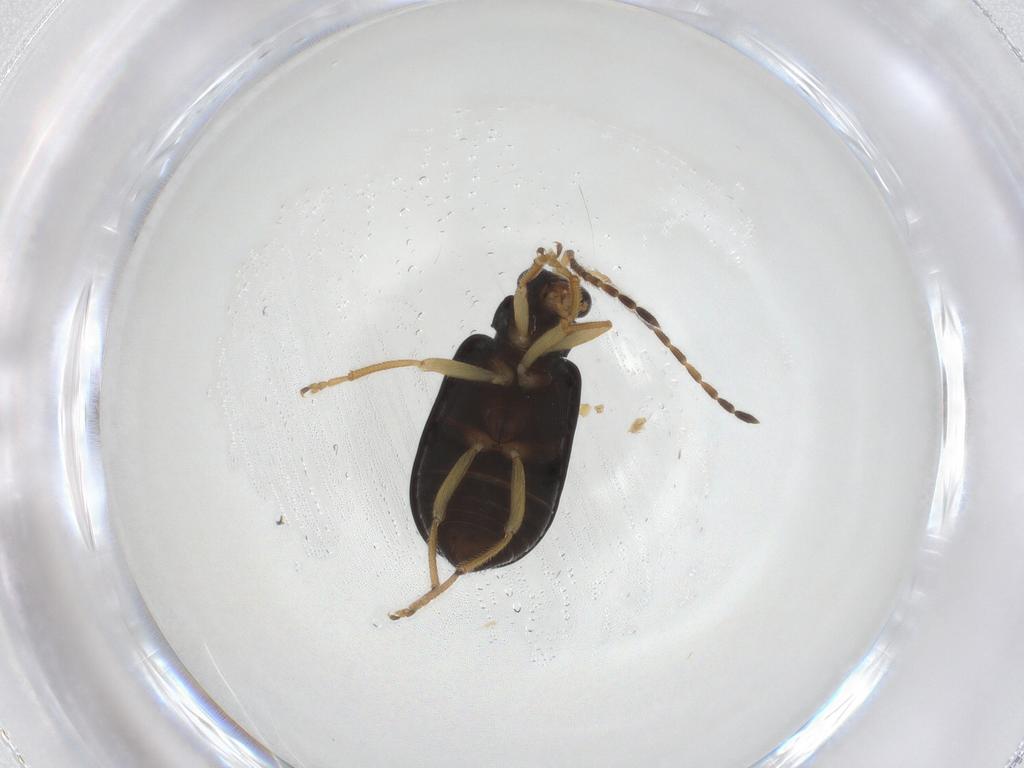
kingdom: Animalia
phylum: Arthropoda
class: Insecta
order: Coleoptera
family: Chrysomelidae
